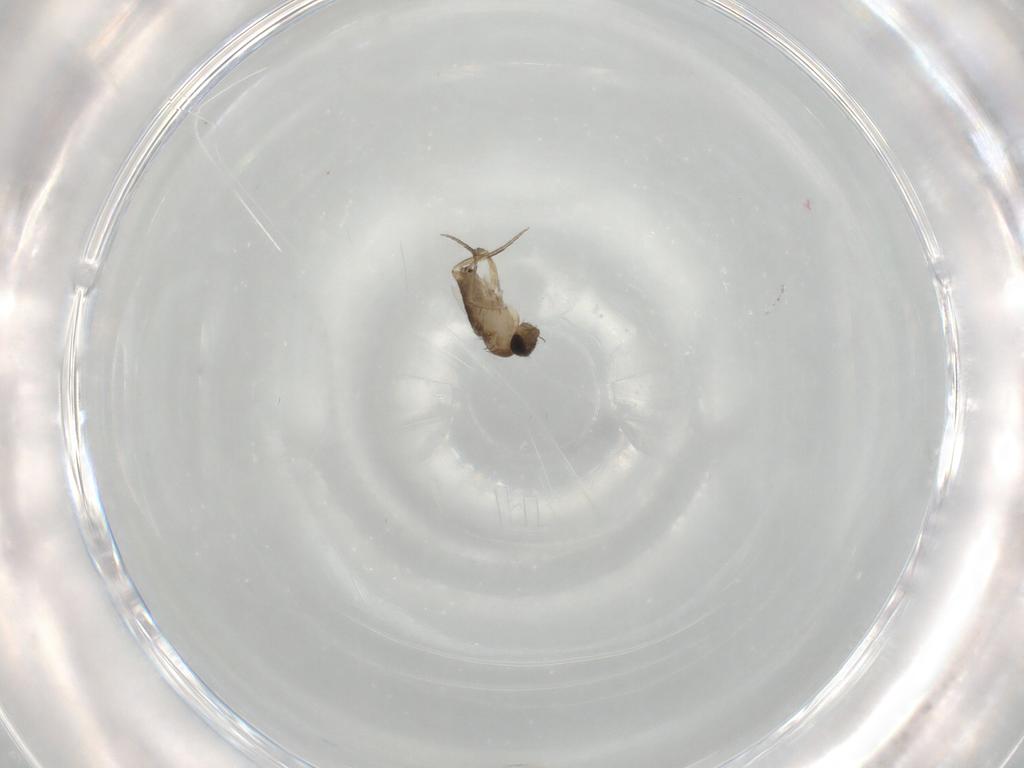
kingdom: Animalia
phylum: Arthropoda
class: Insecta
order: Diptera
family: Phoridae
